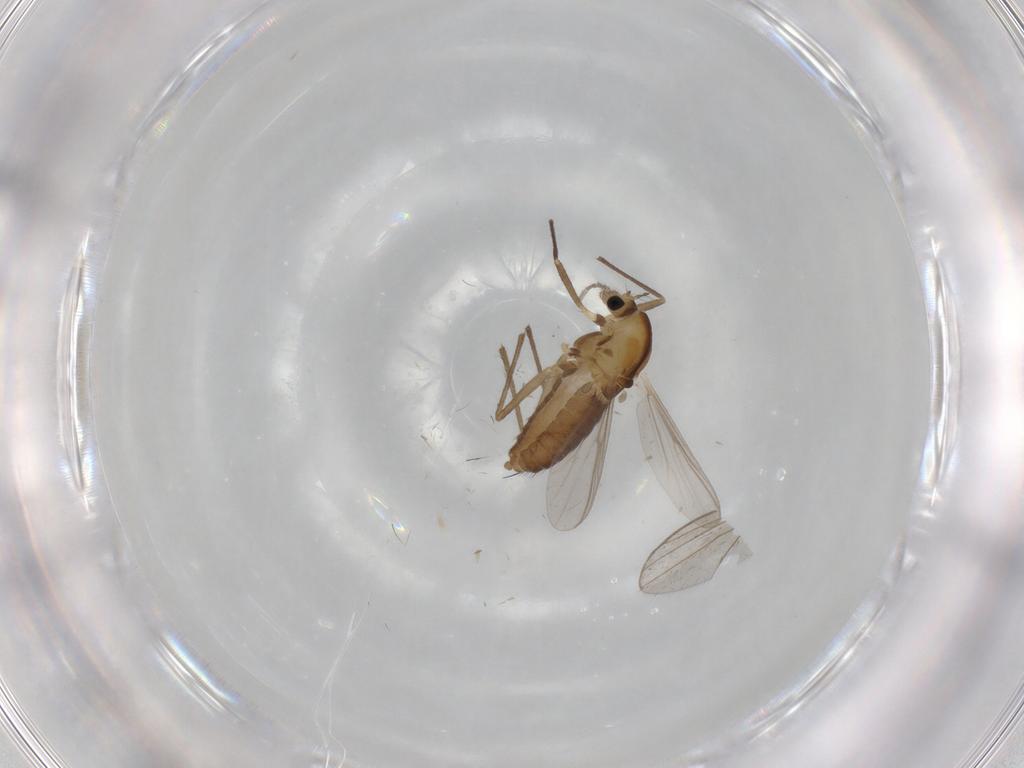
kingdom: Animalia
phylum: Arthropoda
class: Insecta
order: Diptera
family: Chironomidae
